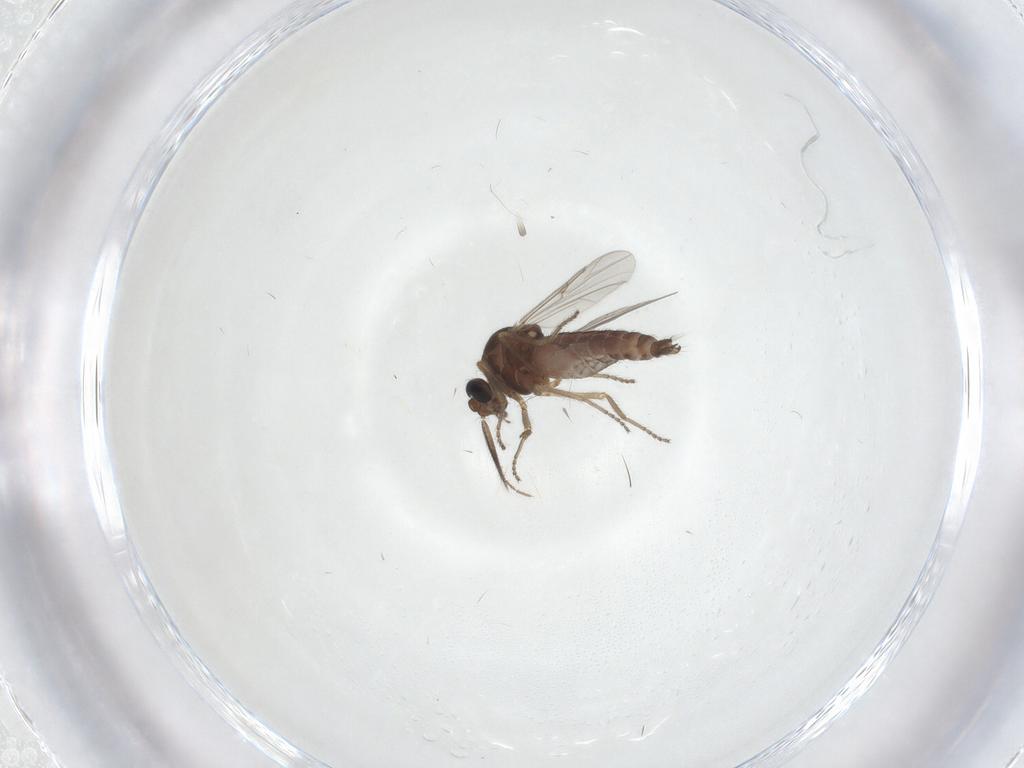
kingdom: Animalia
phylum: Arthropoda
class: Insecta
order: Diptera
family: Ceratopogonidae
